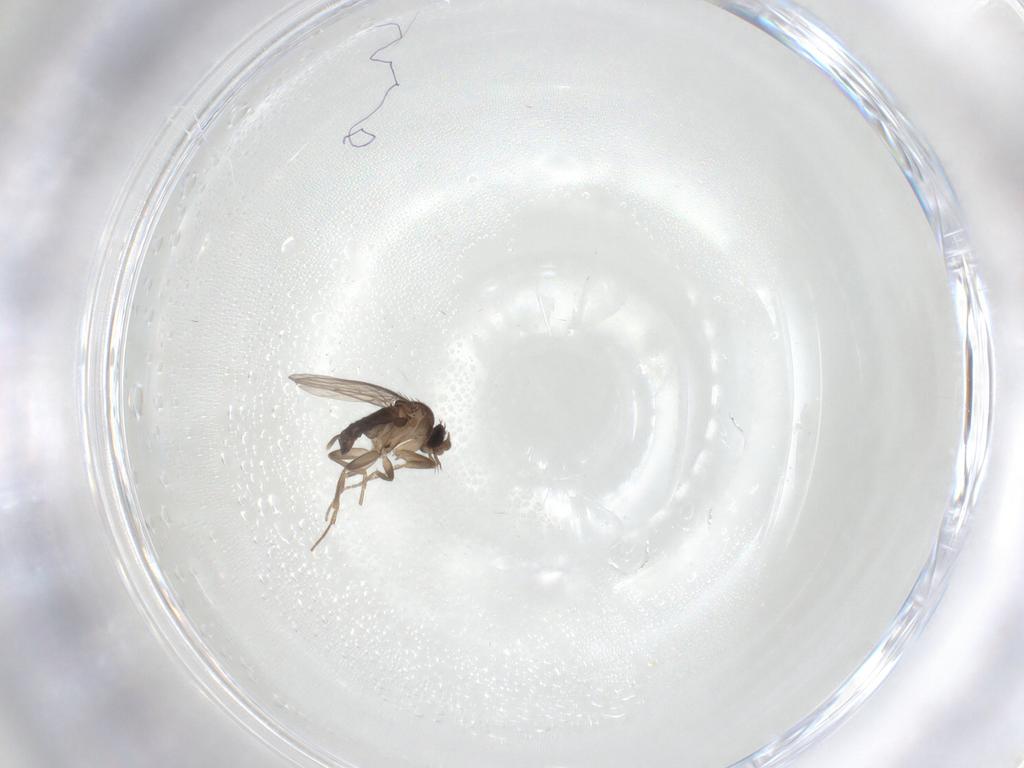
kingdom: Animalia
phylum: Arthropoda
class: Insecta
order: Diptera
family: Phoridae
